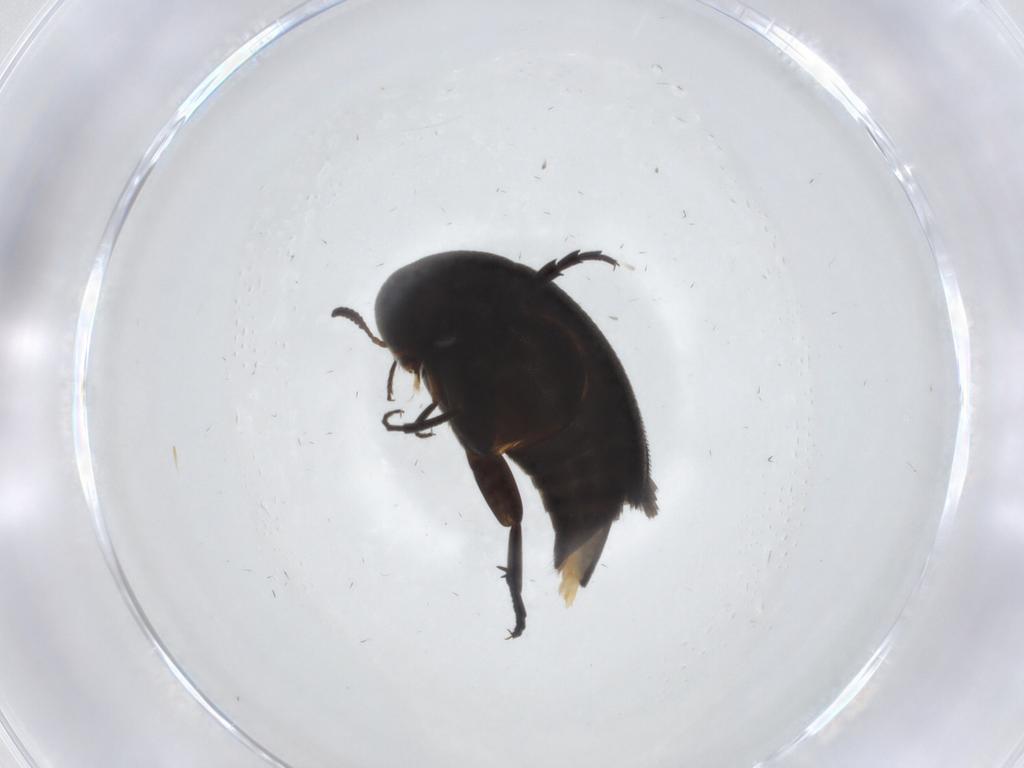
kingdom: Animalia
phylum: Arthropoda
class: Insecta
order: Coleoptera
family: Mordellidae
